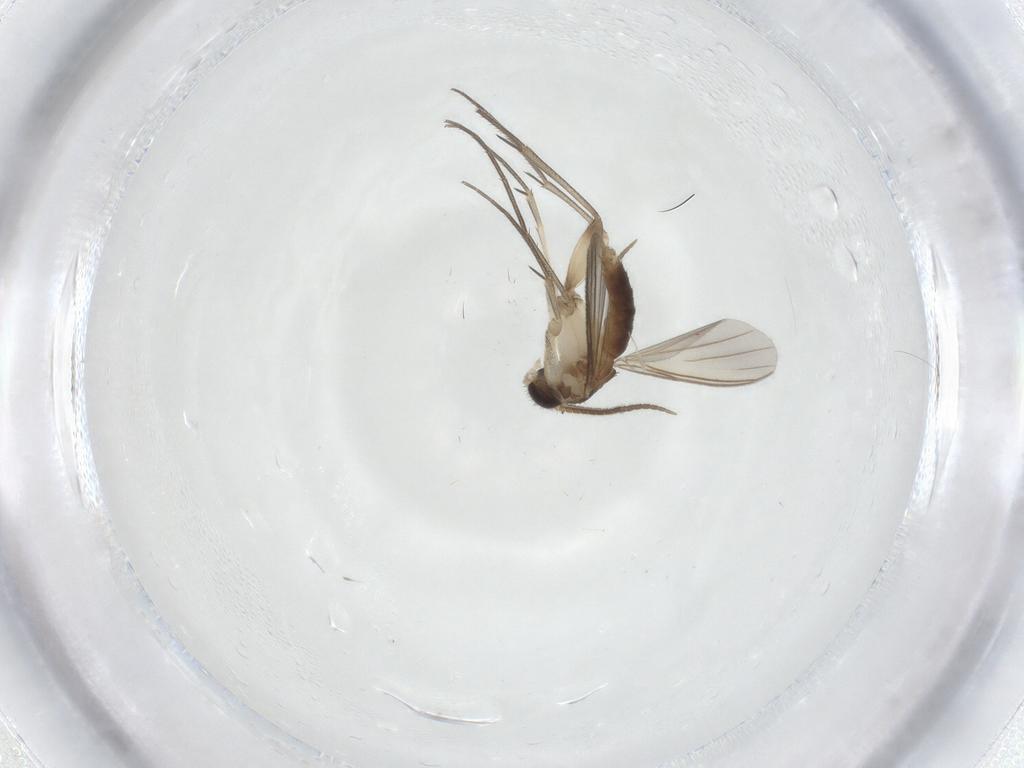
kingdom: Animalia
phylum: Arthropoda
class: Insecta
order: Diptera
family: Mycetophilidae
